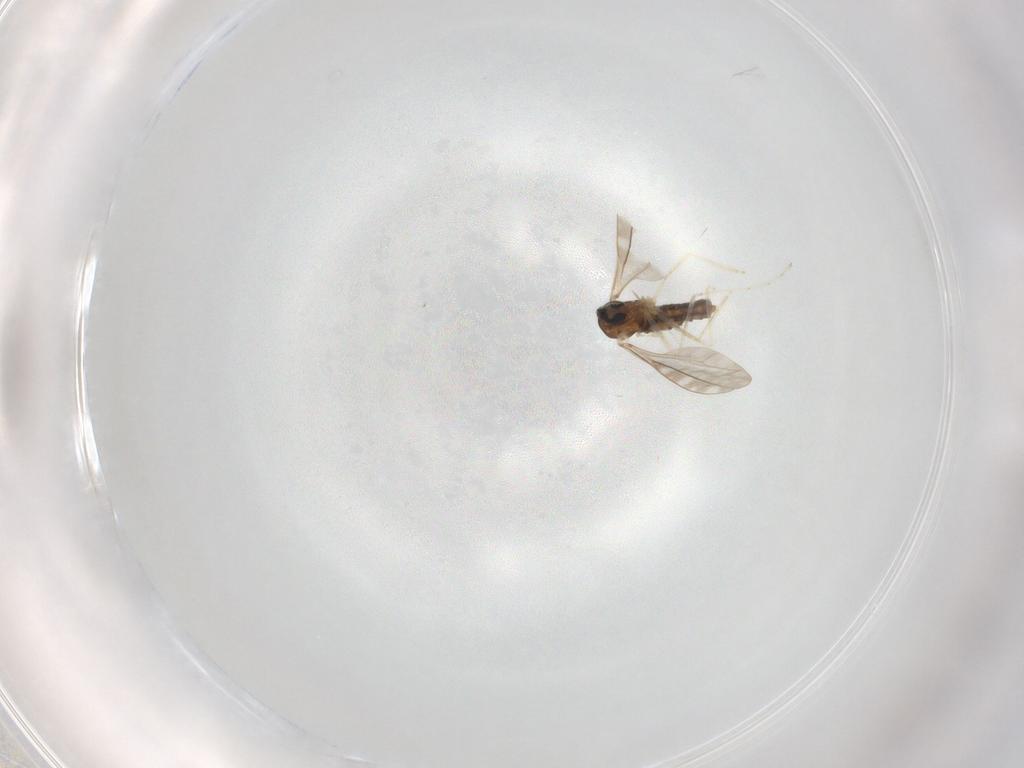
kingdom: Animalia
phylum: Arthropoda
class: Insecta
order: Diptera
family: Cecidomyiidae
